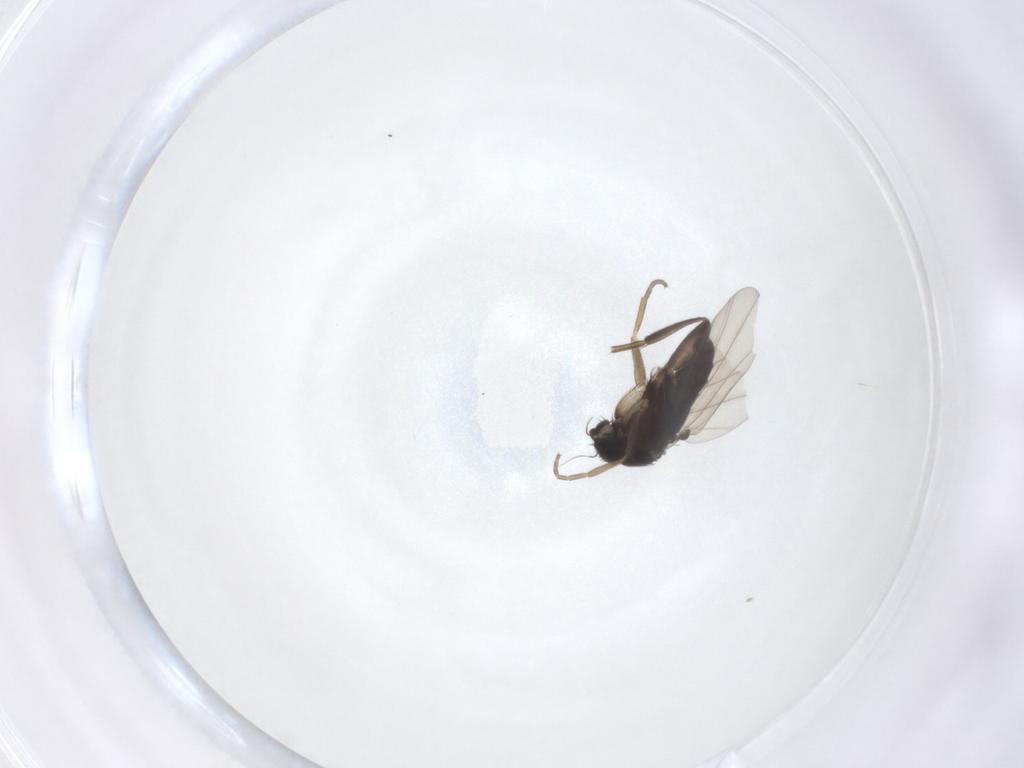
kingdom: Animalia
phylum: Arthropoda
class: Insecta
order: Diptera
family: Phoridae
